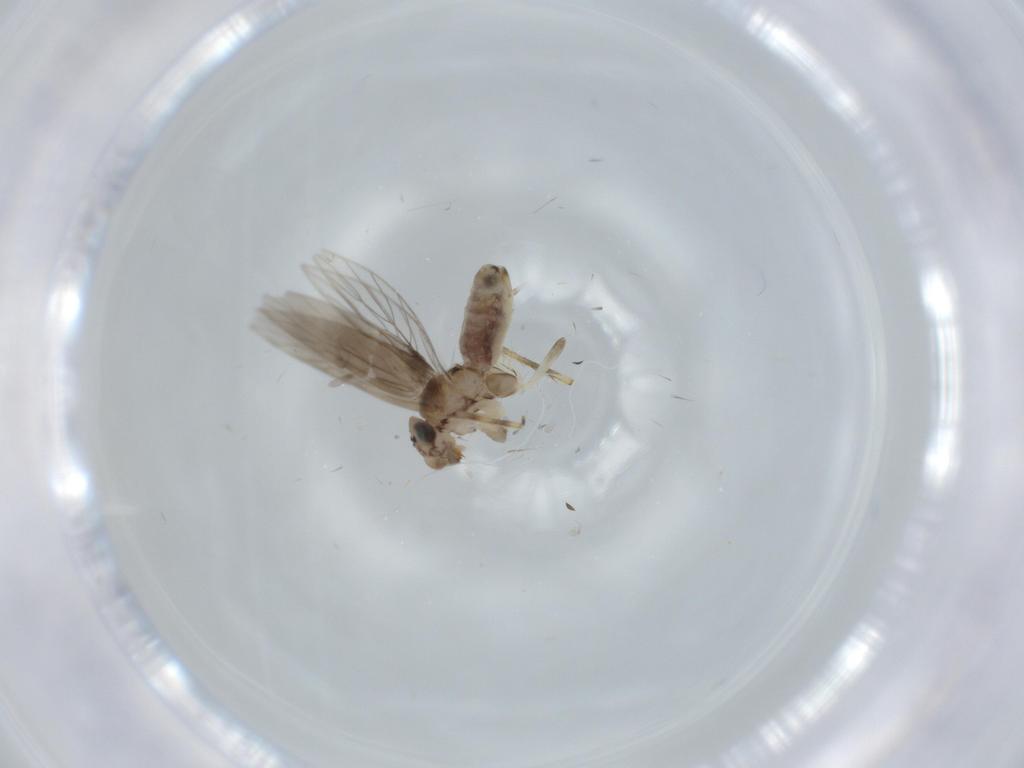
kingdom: Animalia
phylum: Arthropoda
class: Insecta
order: Psocodea
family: Lepidopsocidae
